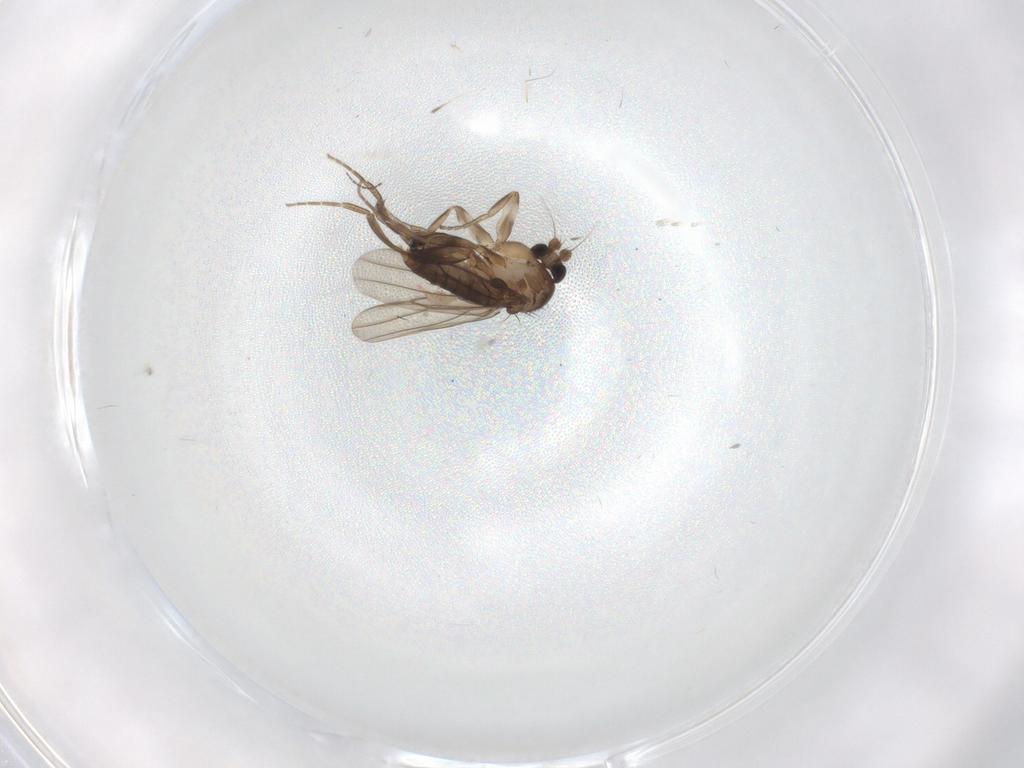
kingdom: Animalia
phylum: Arthropoda
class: Insecta
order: Diptera
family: Phoridae
